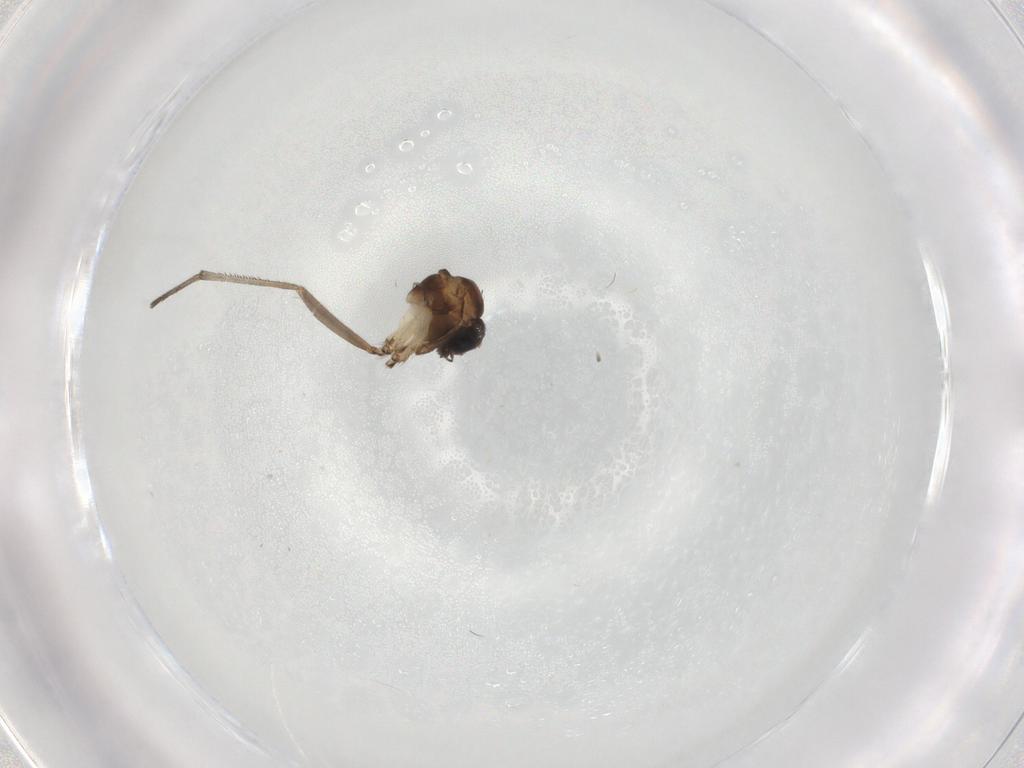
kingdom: Animalia
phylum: Arthropoda
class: Insecta
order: Diptera
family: Sciaridae
